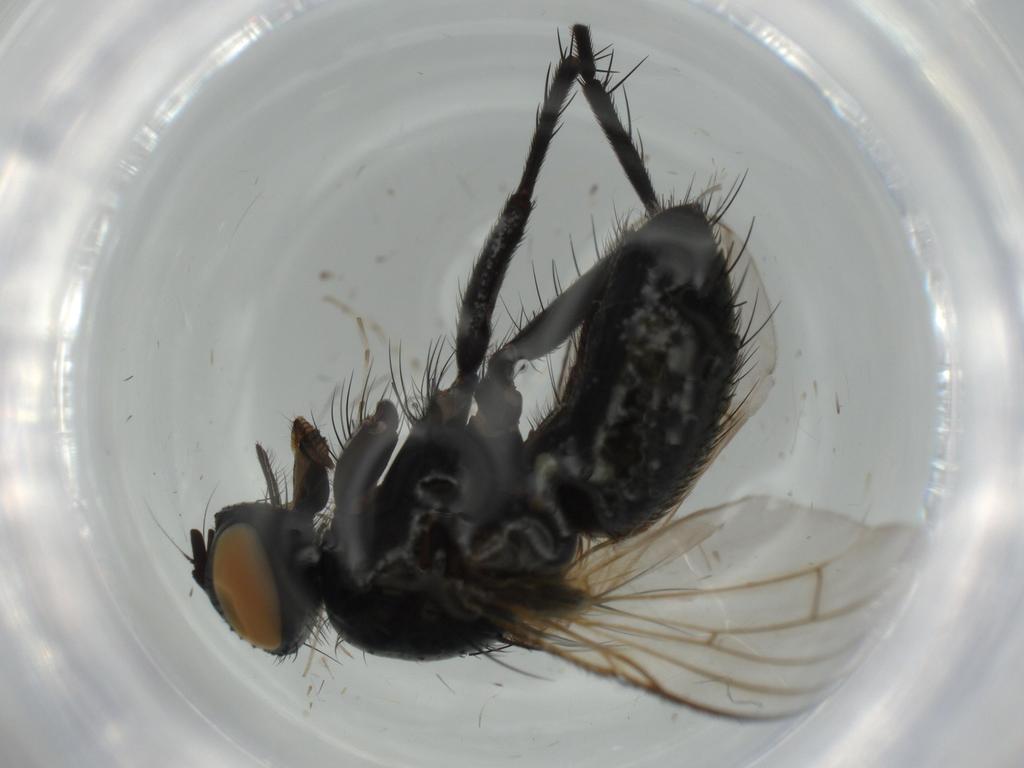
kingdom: Animalia
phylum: Arthropoda
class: Insecta
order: Diptera
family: Muscidae
